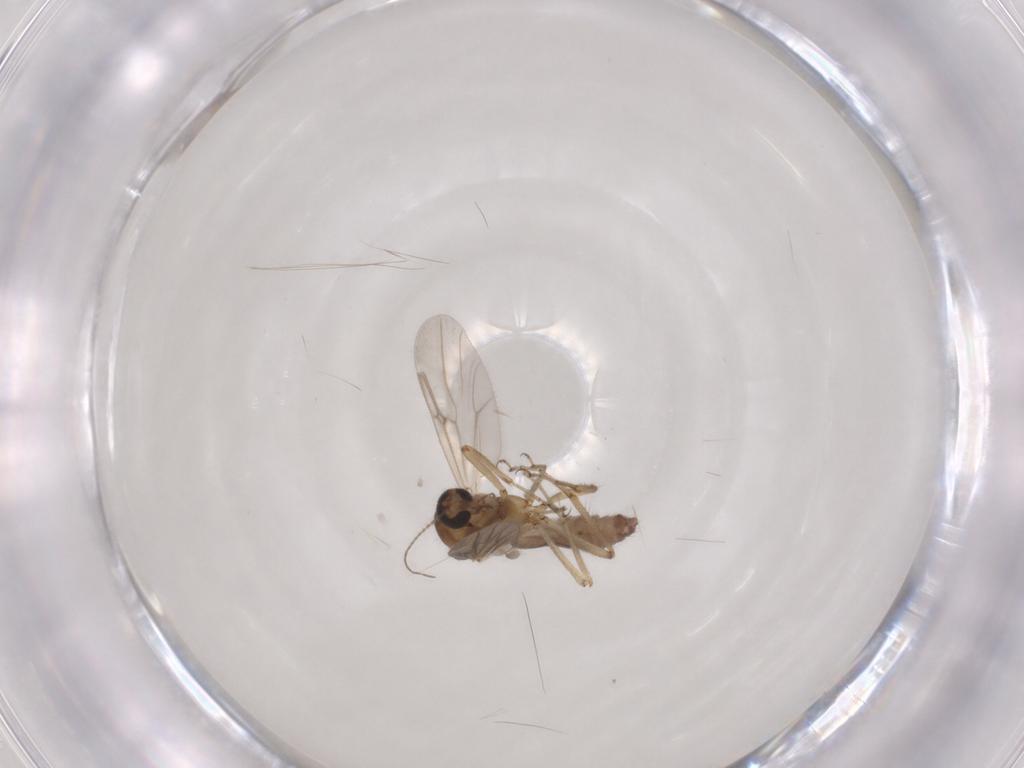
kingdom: Animalia
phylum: Arthropoda
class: Insecta
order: Diptera
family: Ceratopogonidae
